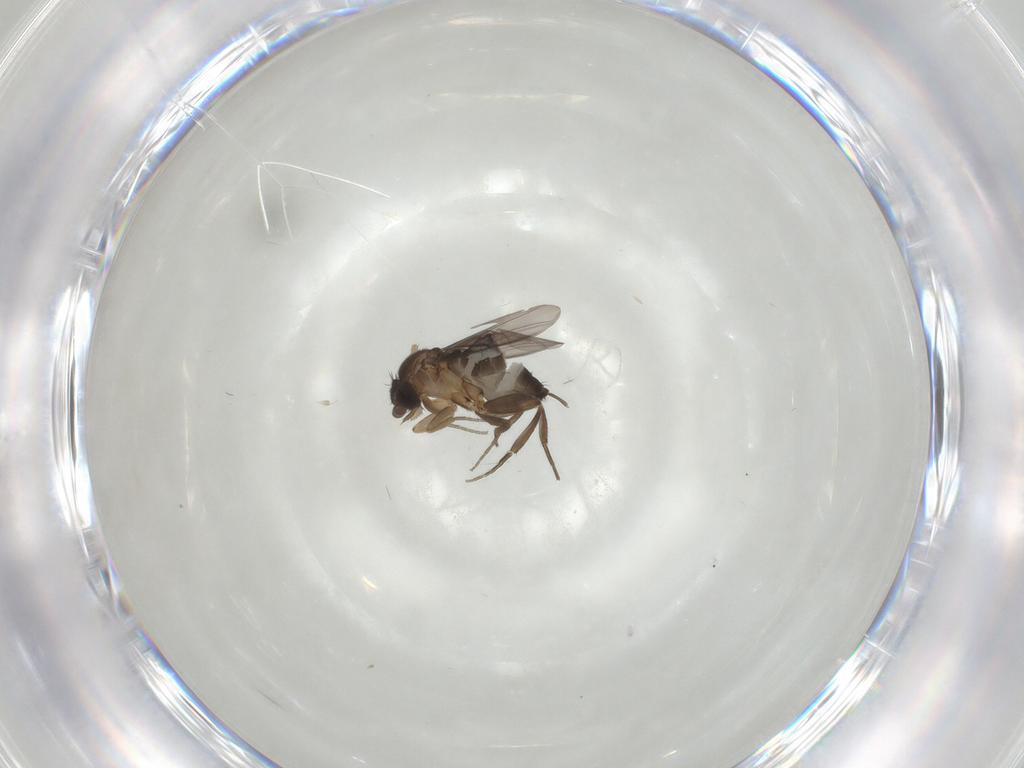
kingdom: Animalia
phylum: Arthropoda
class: Insecta
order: Diptera
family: Phoridae
